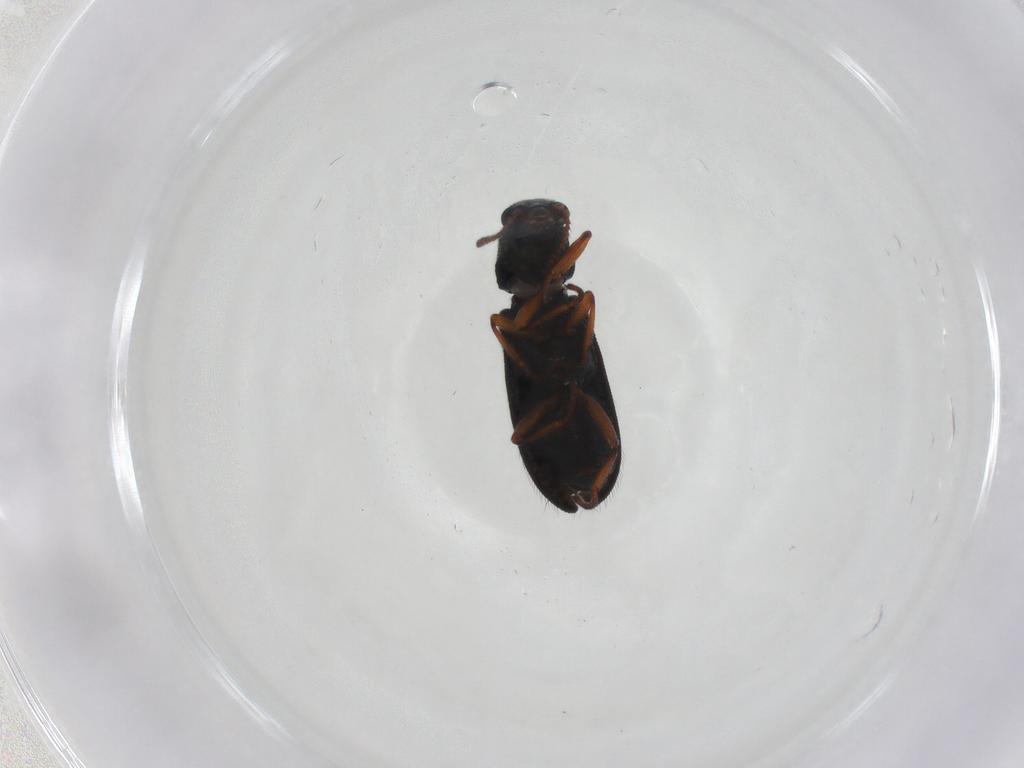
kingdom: Animalia
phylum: Arthropoda
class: Insecta
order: Coleoptera
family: Melyridae
